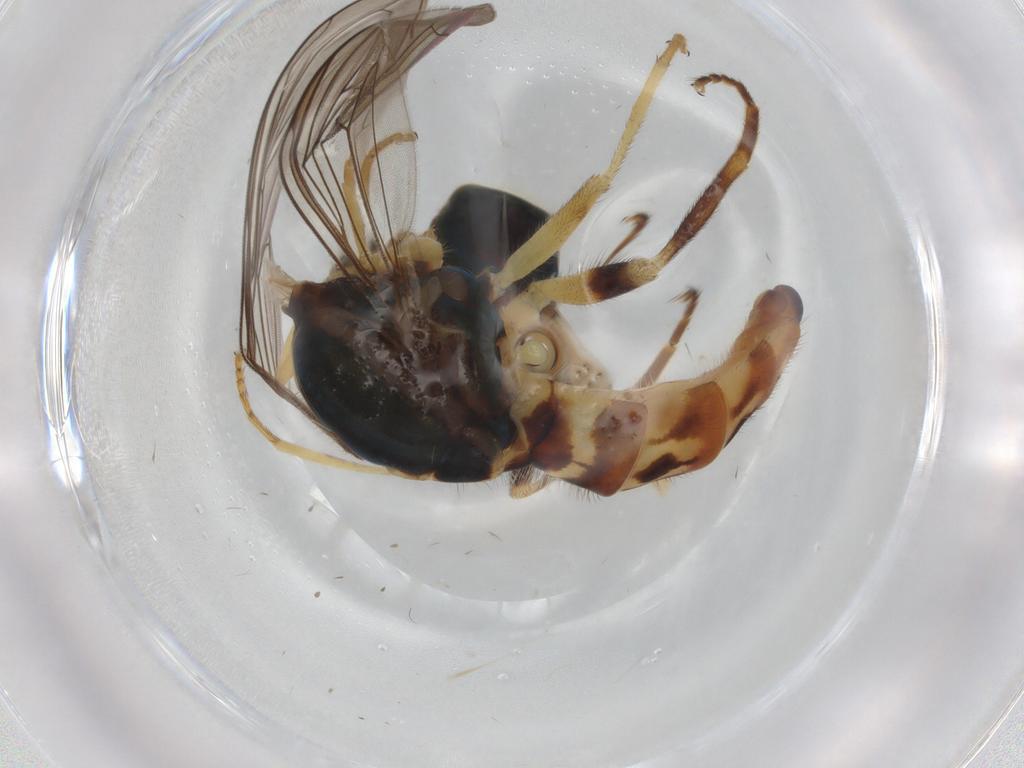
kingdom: Animalia
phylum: Arthropoda
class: Insecta
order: Diptera
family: Syrphidae
